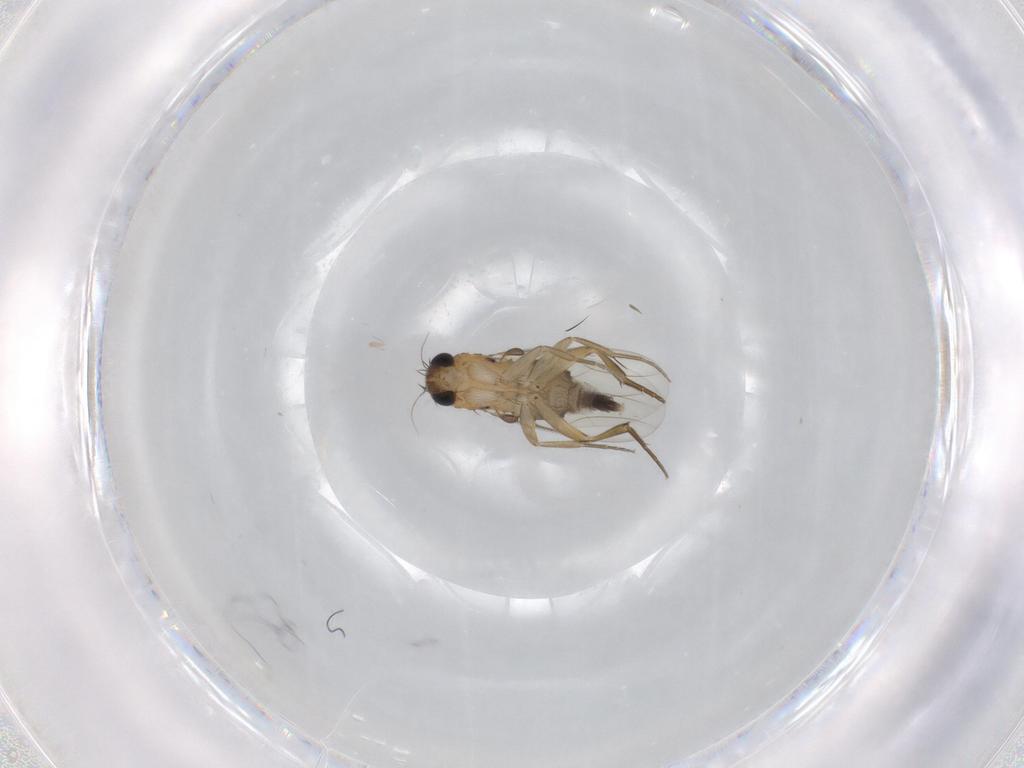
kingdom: Animalia
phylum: Arthropoda
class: Insecta
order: Diptera
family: Phoridae
